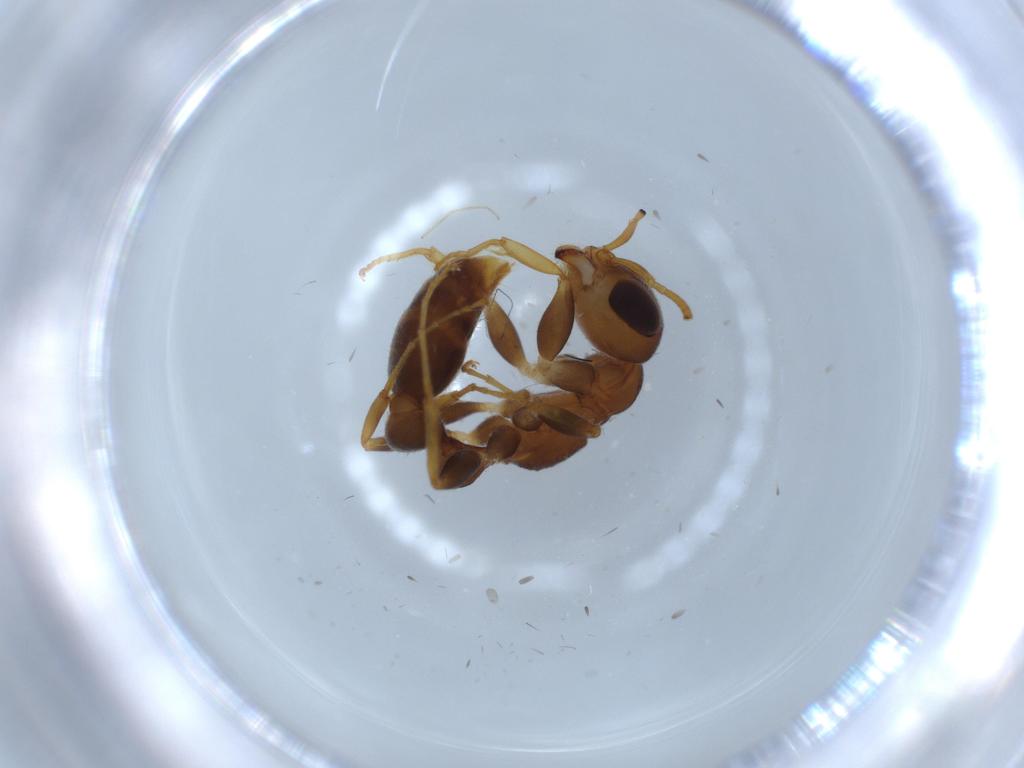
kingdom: Animalia
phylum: Arthropoda
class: Insecta
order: Hymenoptera
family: Formicidae
